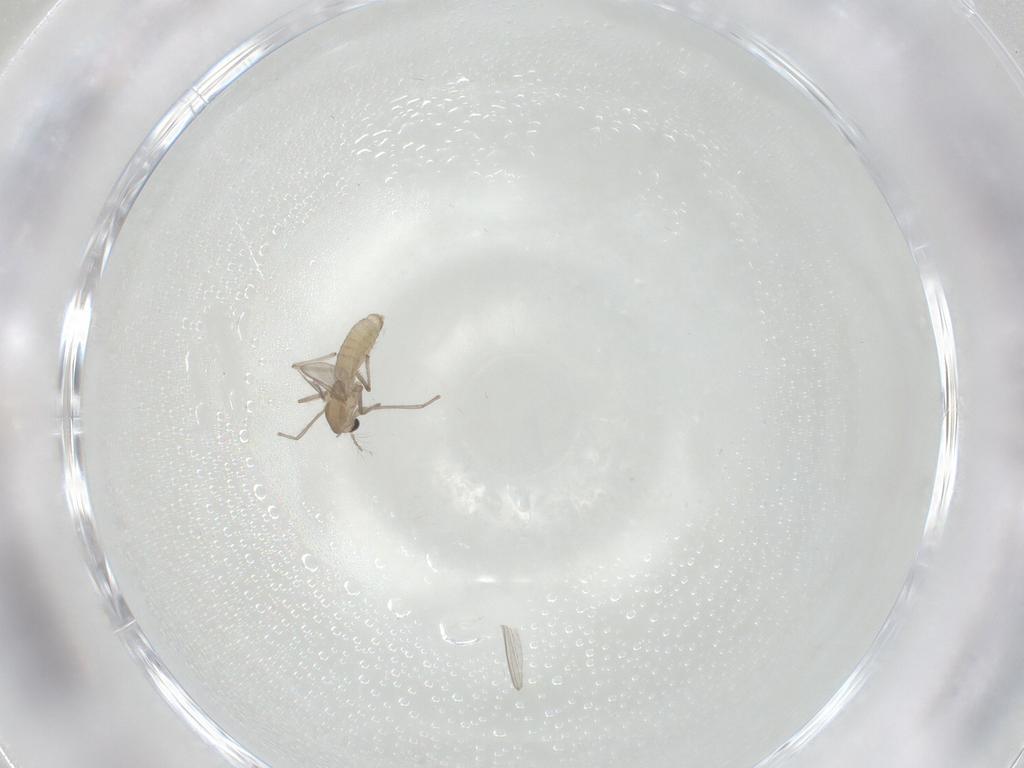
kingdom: Animalia
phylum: Arthropoda
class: Insecta
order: Diptera
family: Chironomidae
